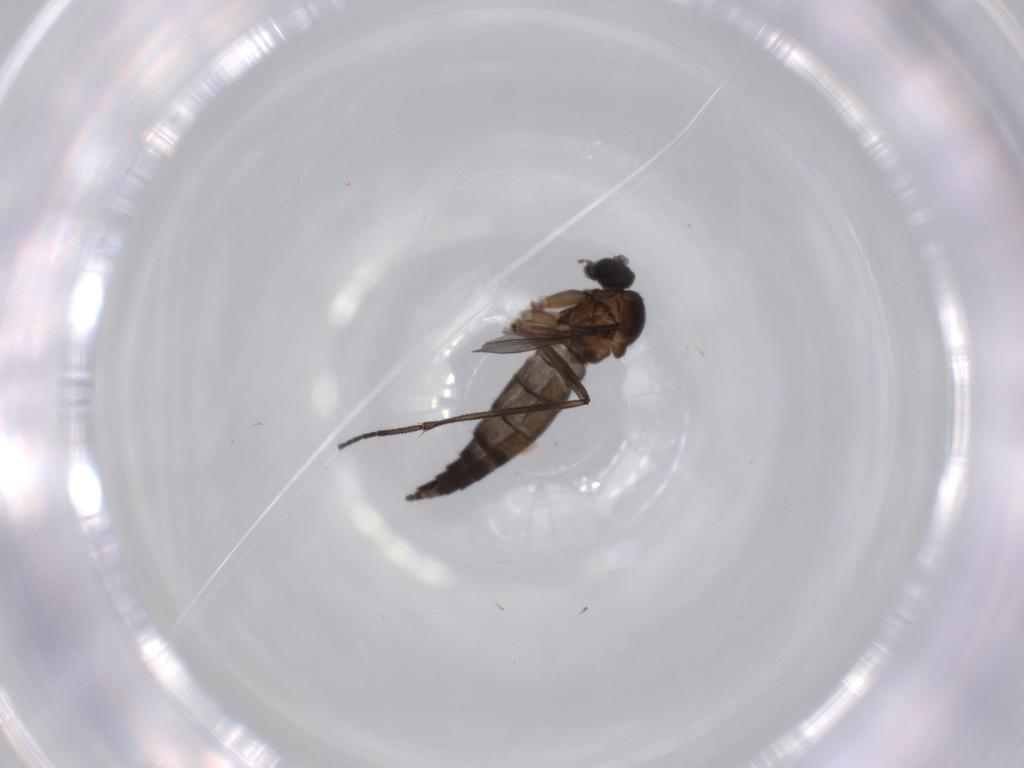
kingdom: Animalia
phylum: Arthropoda
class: Insecta
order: Diptera
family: Sciaridae
